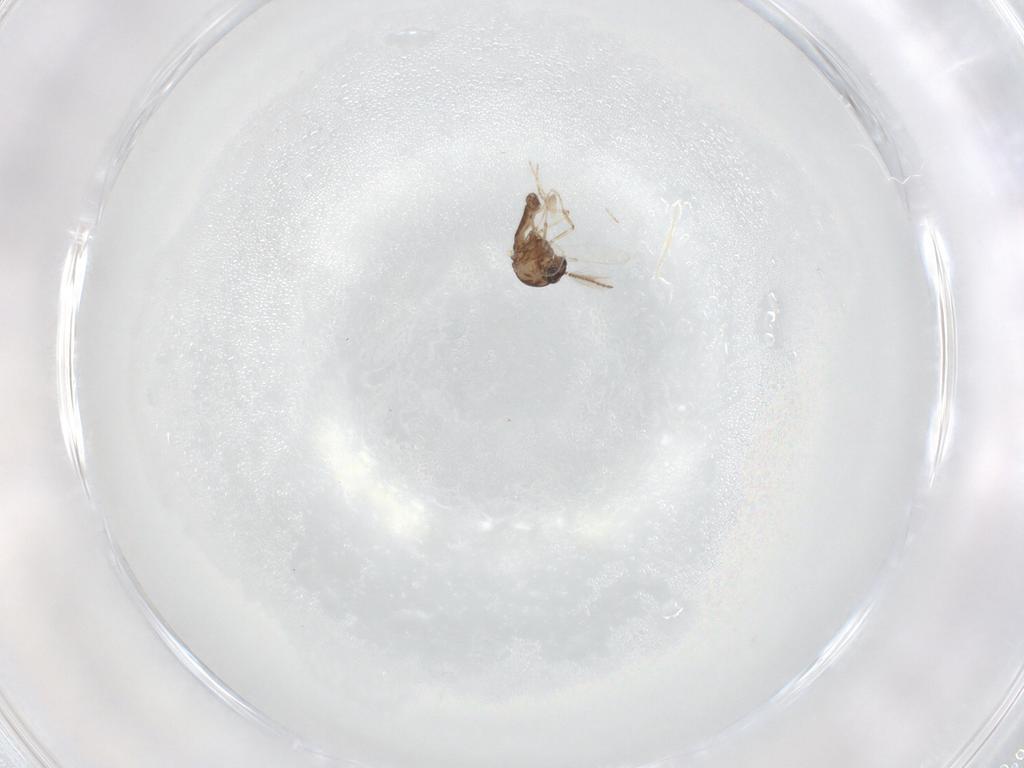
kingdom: Animalia
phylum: Arthropoda
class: Insecta
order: Diptera
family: Ceratopogonidae
